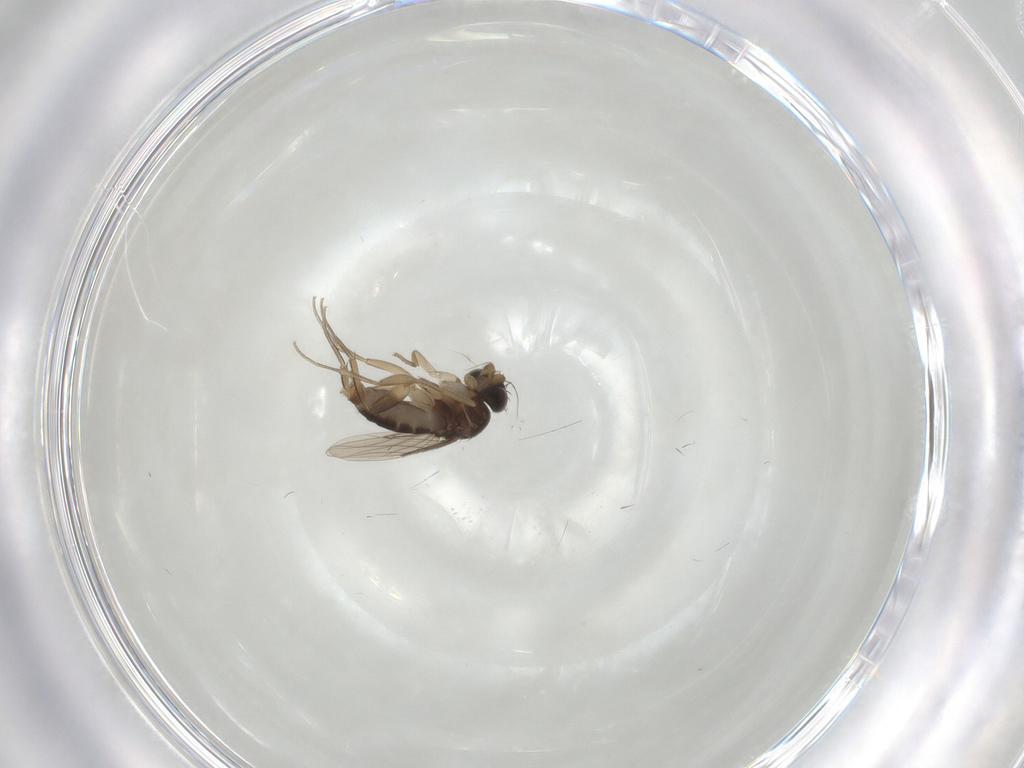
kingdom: Animalia
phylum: Arthropoda
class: Insecta
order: Diptera
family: Phoridae
